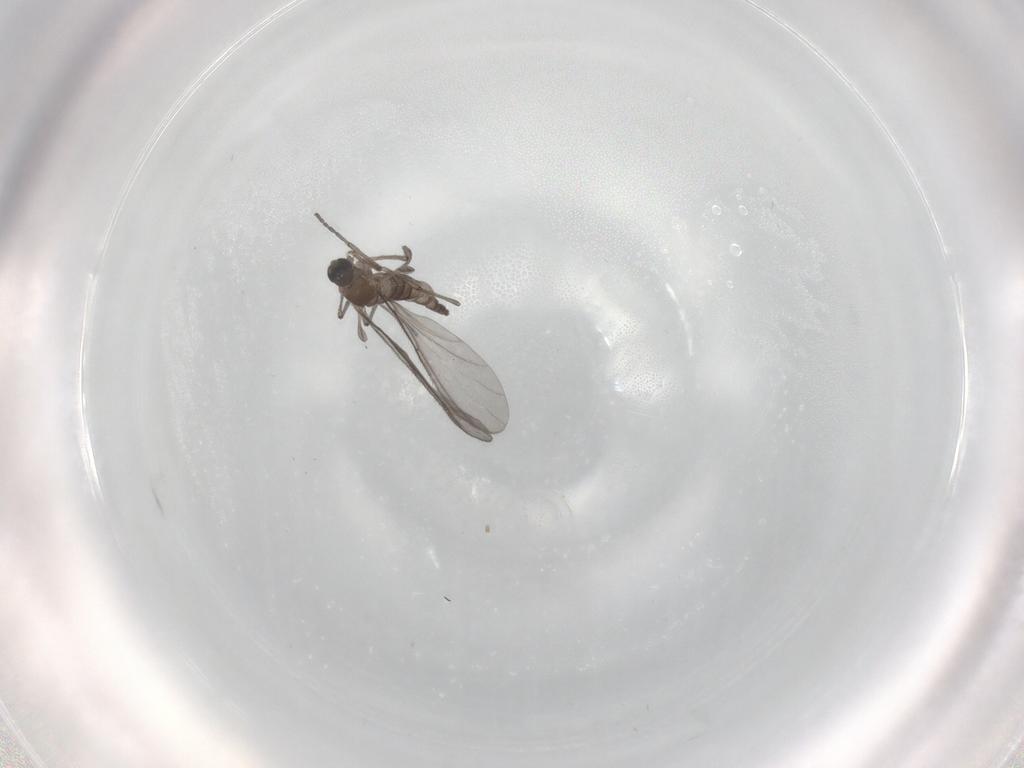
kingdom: Animalia
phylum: Arthropoda
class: Insecta
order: Diptera
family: Sciaridae
